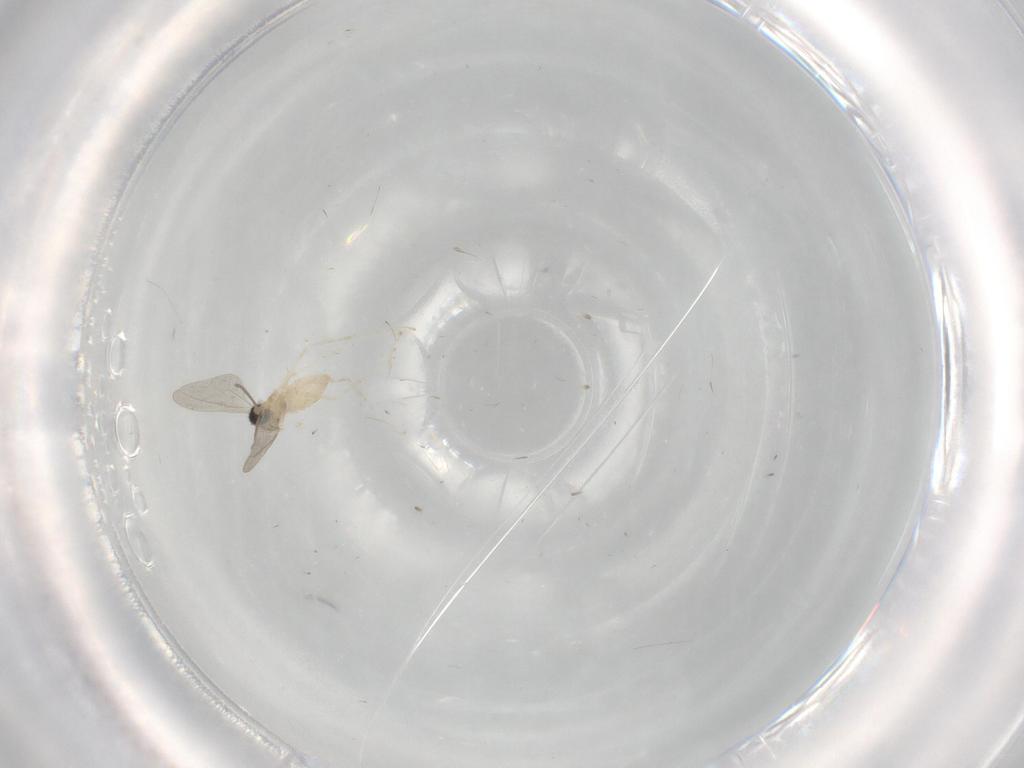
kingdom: Animalia
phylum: Arthropoda
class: Insecta
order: Diptera
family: Cecidomyiidae
